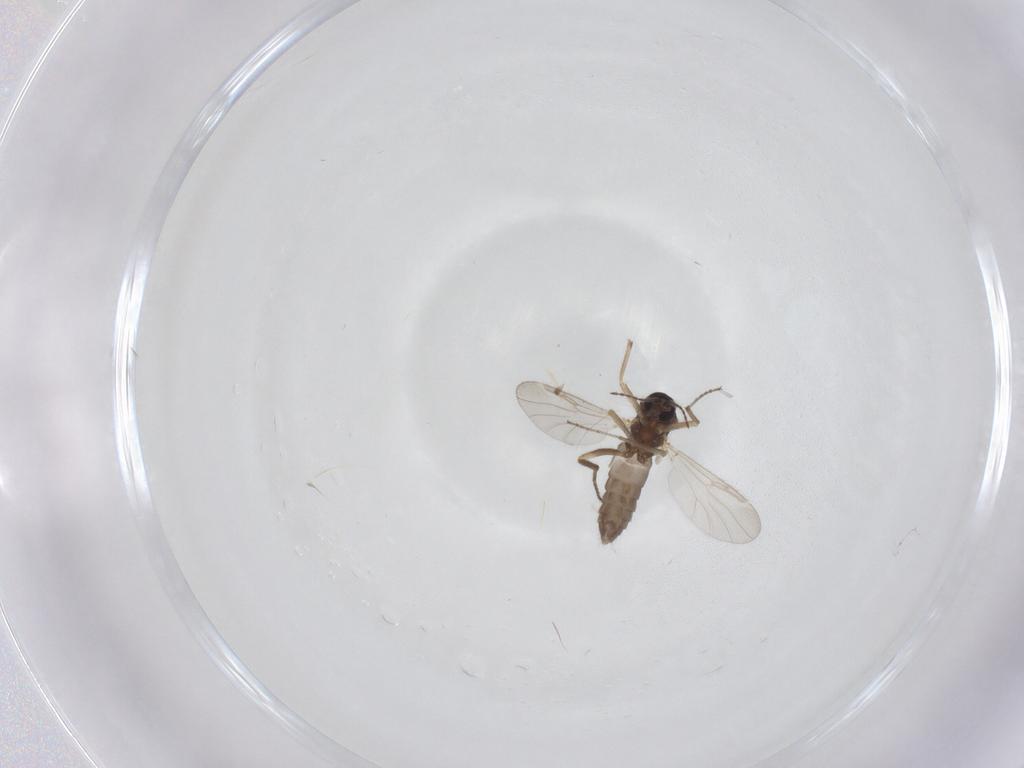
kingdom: Animalia
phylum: Arthropoda
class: Insecta
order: Diptera
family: Ceratopogonidae
